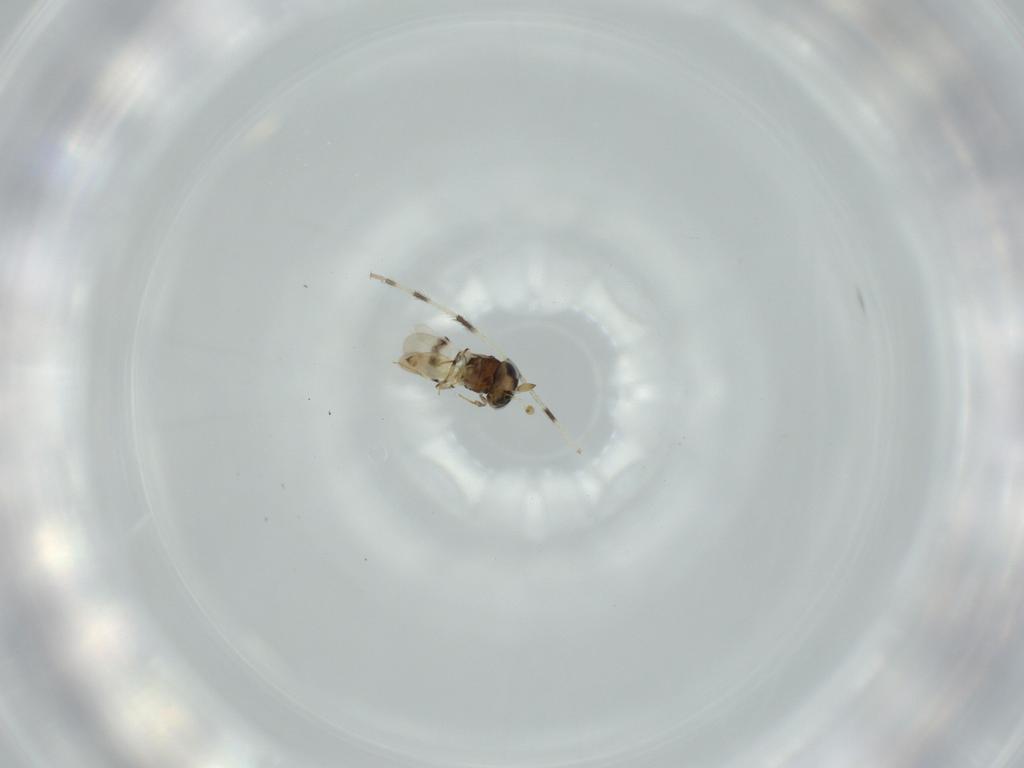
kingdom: Animalia
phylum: Arthropoda
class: Insecta
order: Hymenoptera
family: Scelionidae
